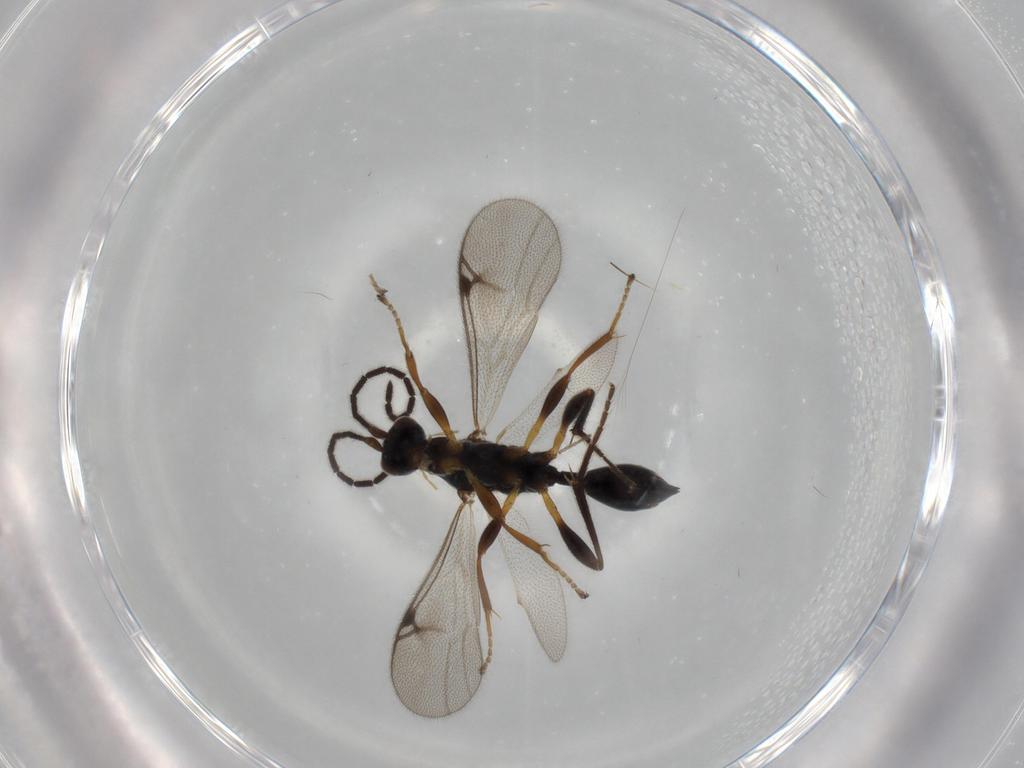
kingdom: Animalia
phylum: Arthropoda
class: Insecta
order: Hymenoptera
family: Proctotrupidae
